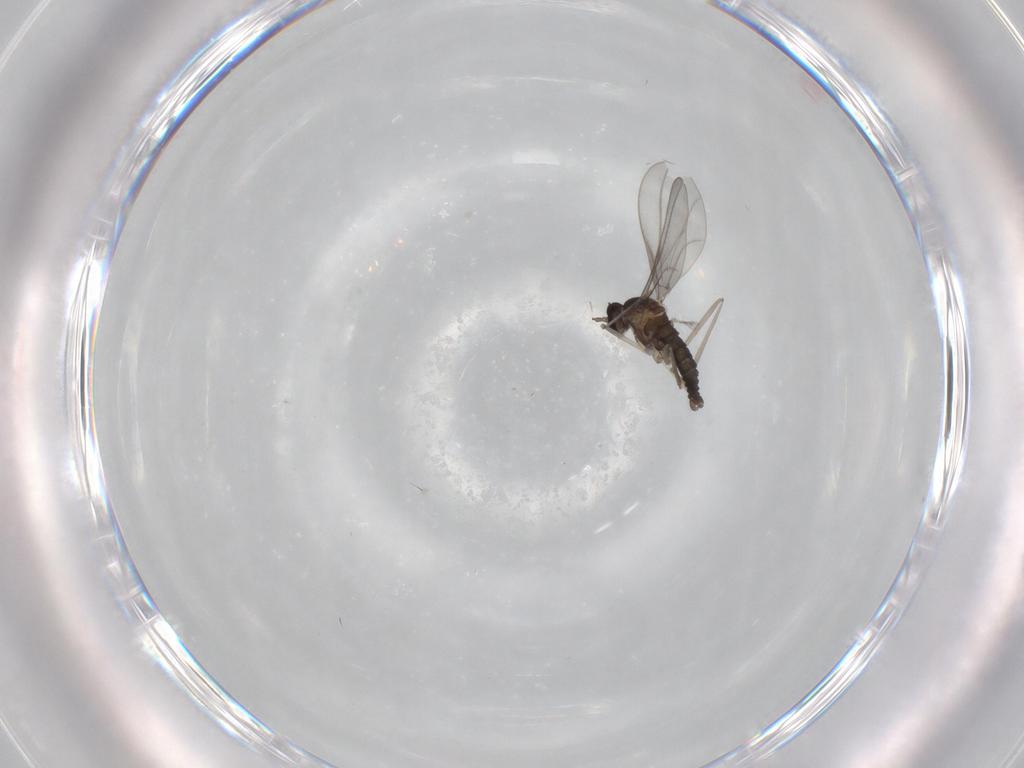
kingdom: Animalia
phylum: Arthropoda
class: Insecta
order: Diptera
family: Cecidomyiidae
